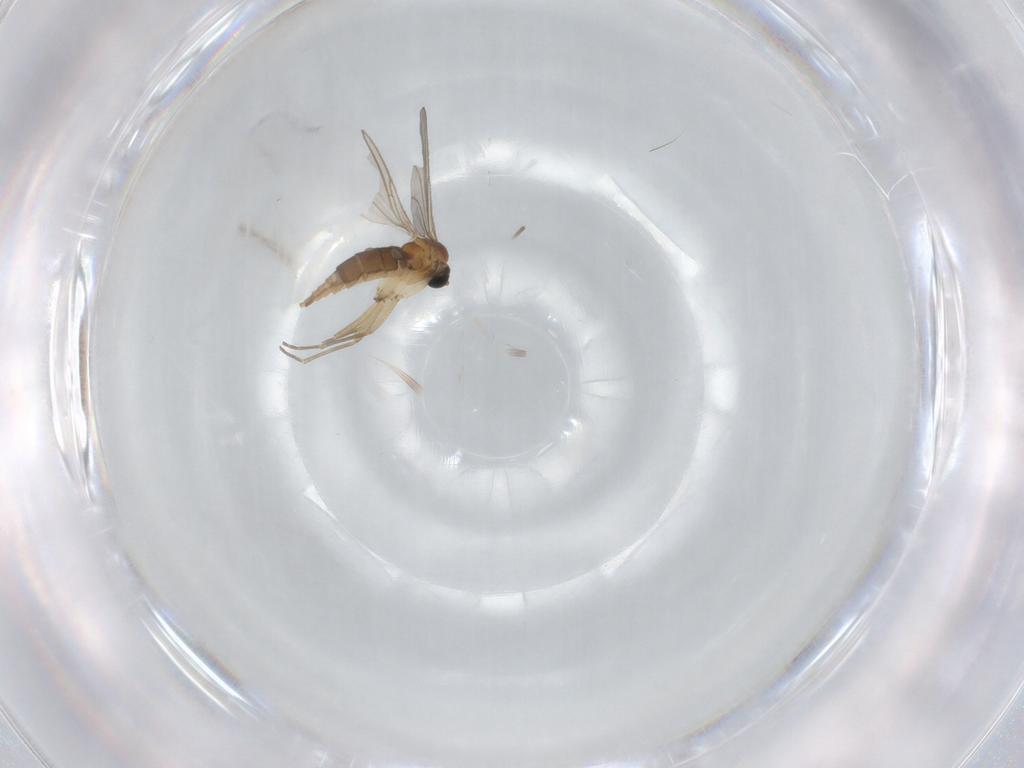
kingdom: Animalia
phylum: Arthropoda
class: Insecta
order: Diptera
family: Sciaridae
